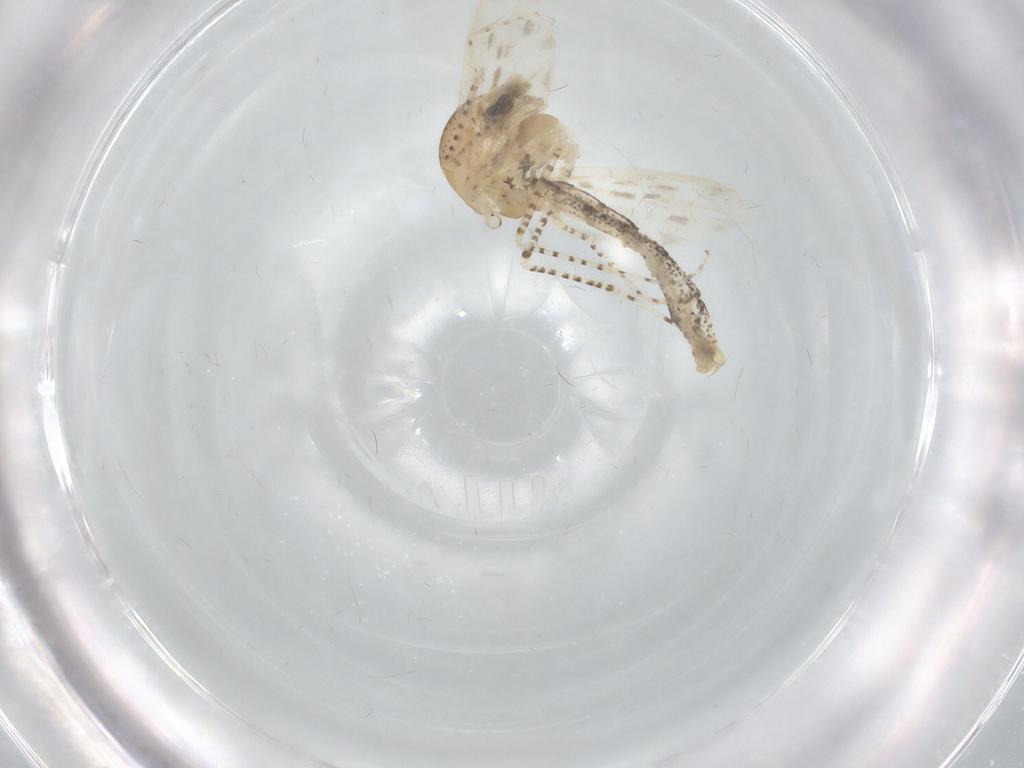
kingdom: Animalia
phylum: Arthropoda
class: Insecta
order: Diptera
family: Chaoboridae
